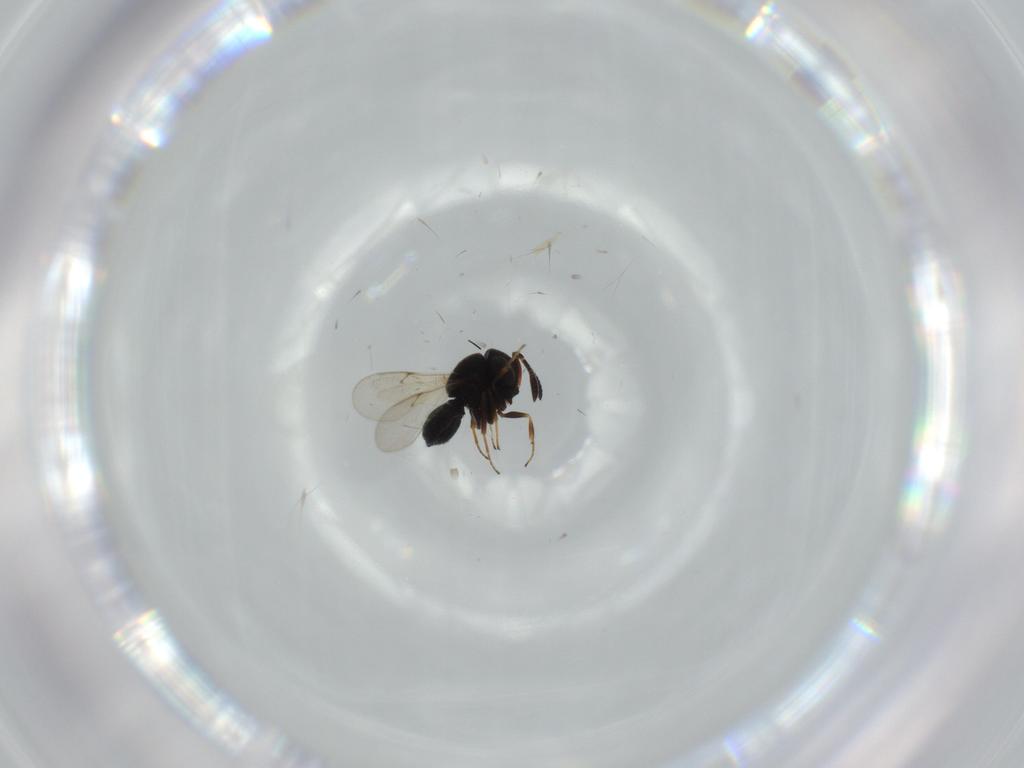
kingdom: Animalia
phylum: Arthropoda
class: Insecta
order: Hymenoptera
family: Scelionidae
